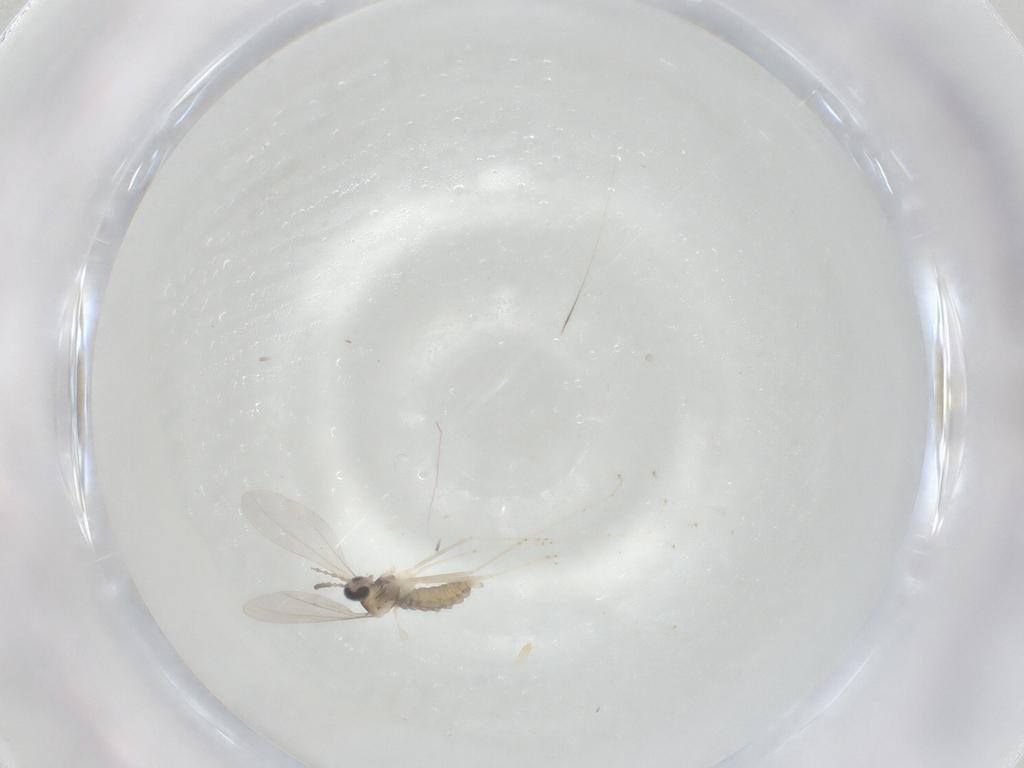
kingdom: Animalia
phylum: Arthropoda
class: Insecta
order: Diptera
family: Cecidomyiidae
